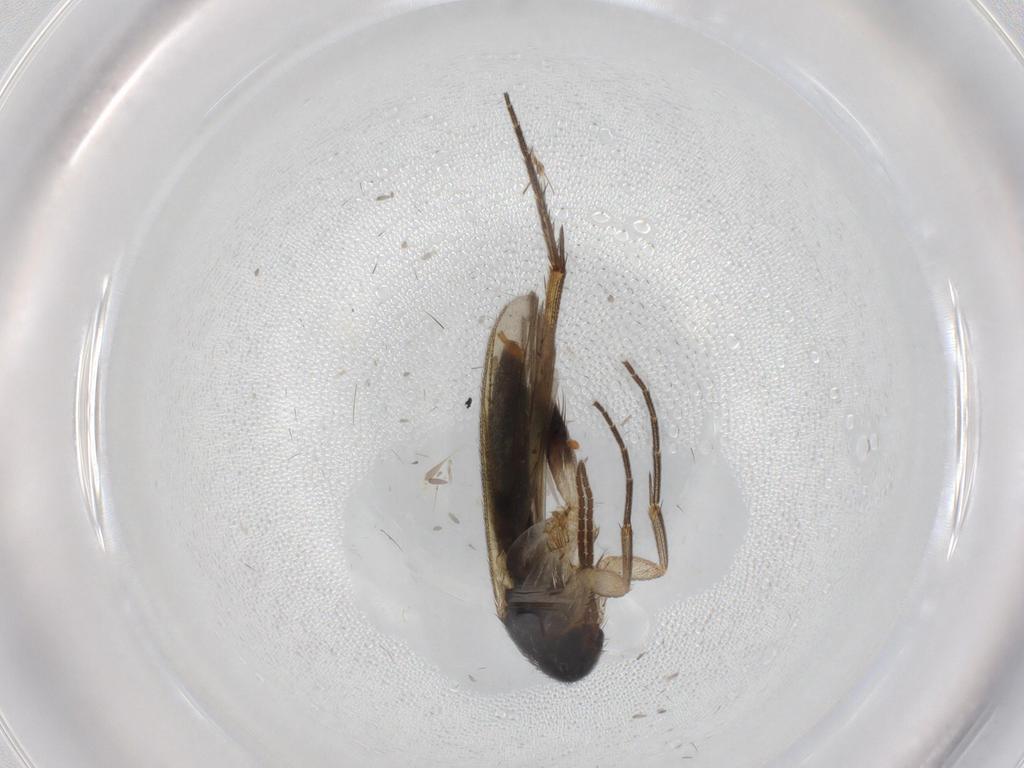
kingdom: Animalia
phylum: Arthropoda
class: Insecta
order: Diptera
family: Mycetophilidae
